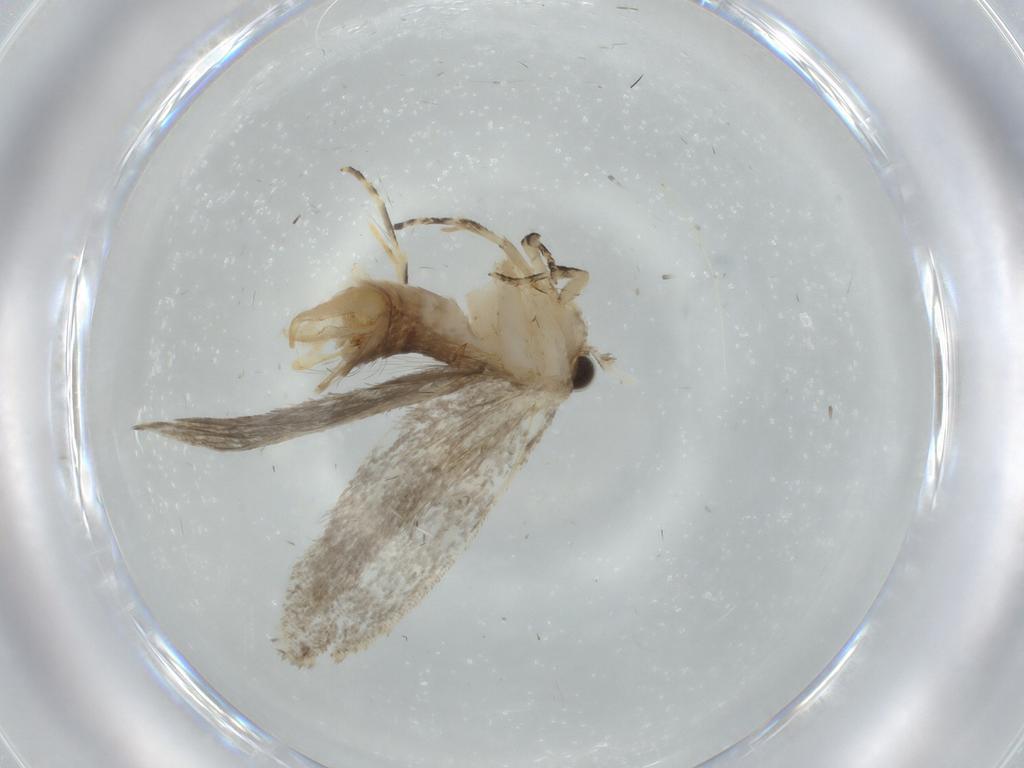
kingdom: Animalia
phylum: Arthropoda
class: Insecta
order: Lepidoptera
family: Tineidae
